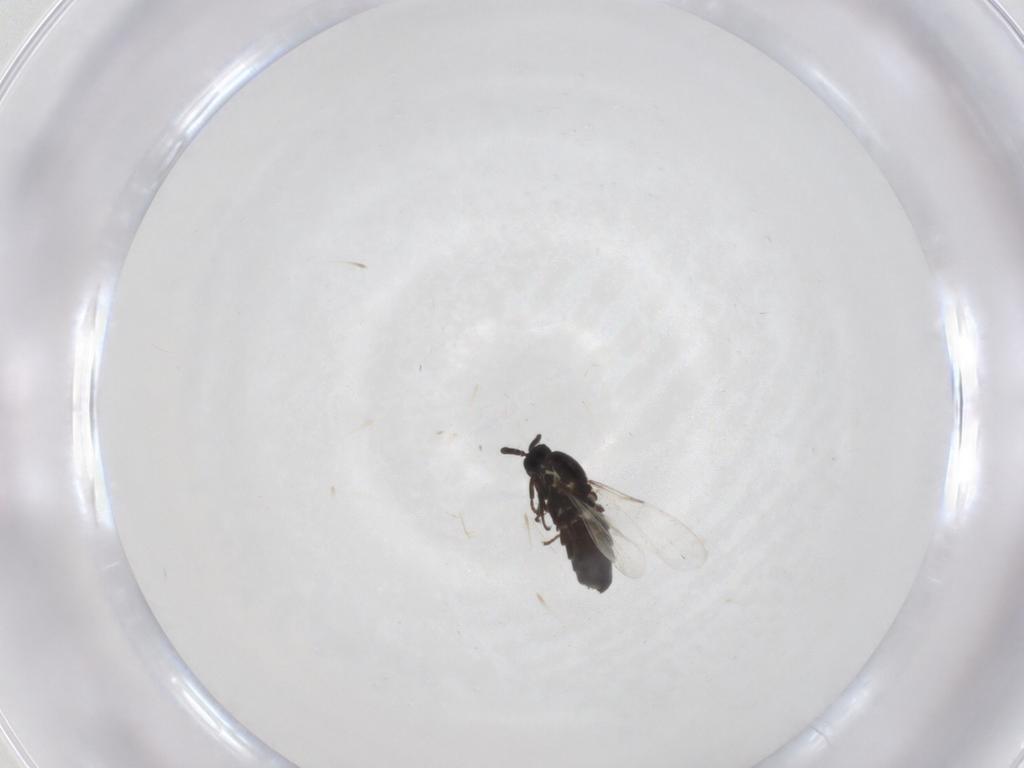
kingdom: Animalia
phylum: Arthropoda
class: Insecta
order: Diptera
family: Scatopsidae
